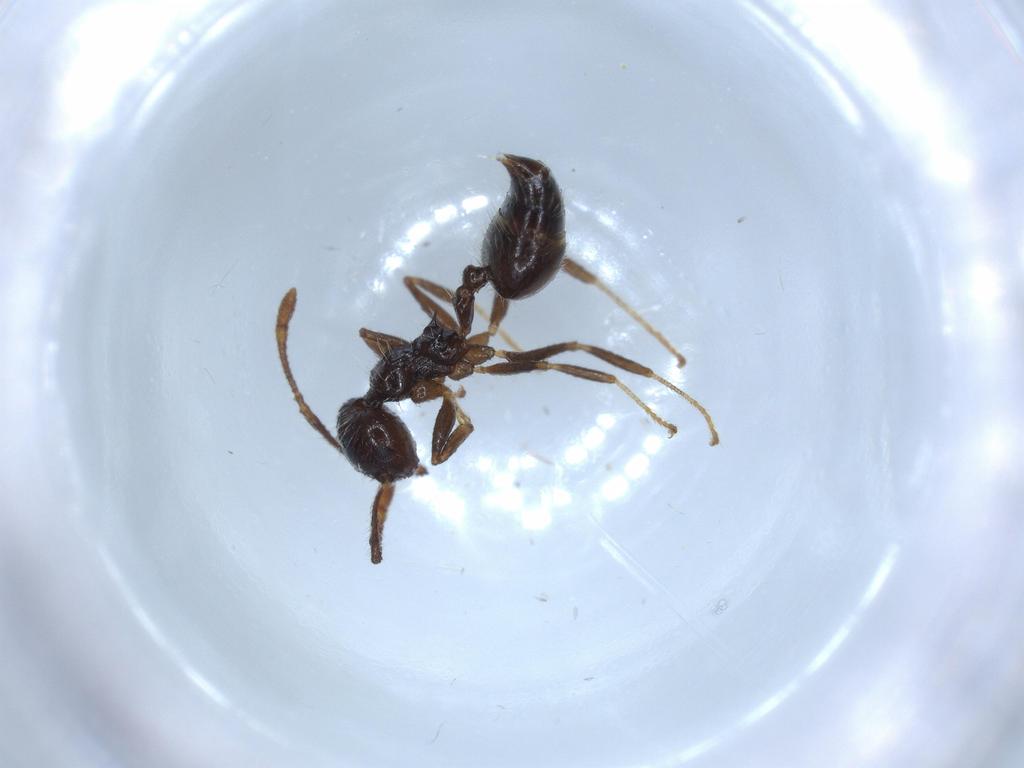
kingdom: Animalia
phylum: Arthropoda
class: Insecta
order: Hymenoptera
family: Formicidae
